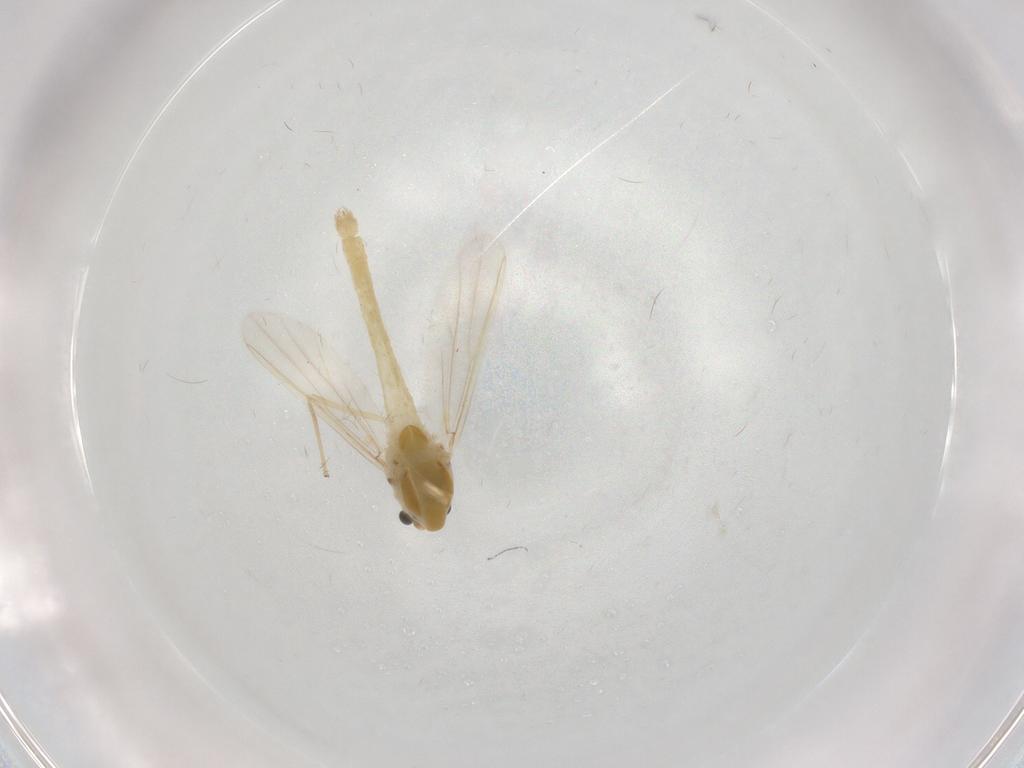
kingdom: Animalia
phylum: Arthropoda
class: Insecta
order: Diptera
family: Chironomidae
